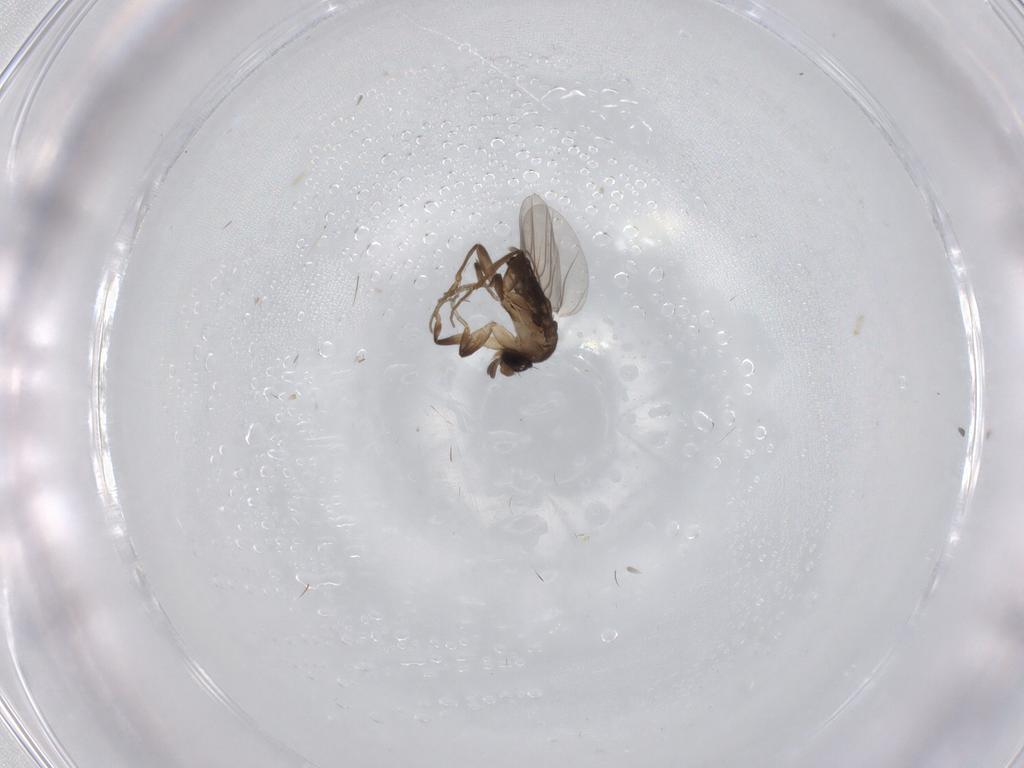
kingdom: Animalia
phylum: Arthropoda
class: Insecta
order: Diptera
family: Phoridae
